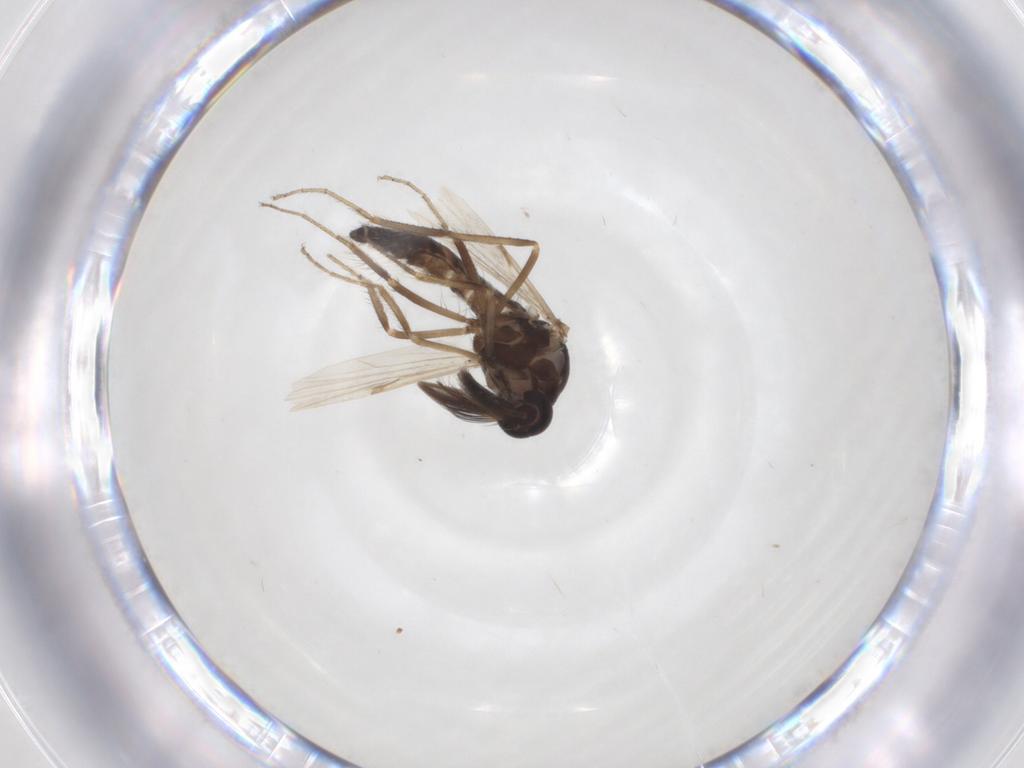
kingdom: Animalia
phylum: Arthropoda
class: Insecta
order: Diptera
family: Ceratopogonidae
